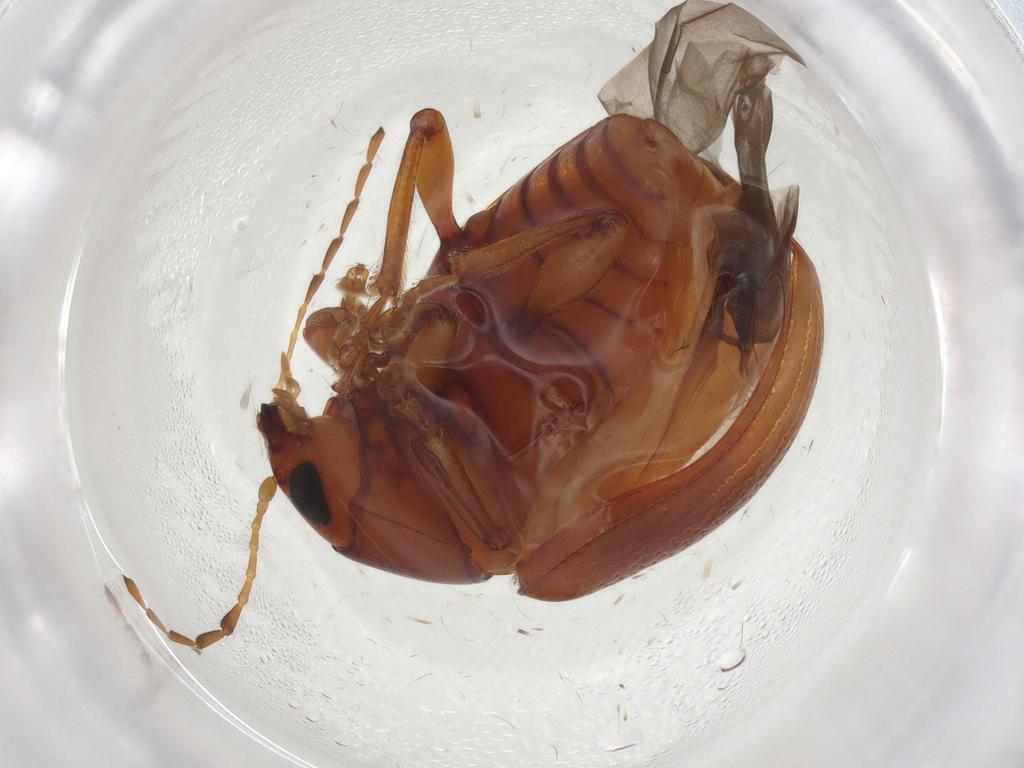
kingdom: Animalia
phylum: Arthropoda
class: Insecta
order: Coleoptera
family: Chrysomelidae
